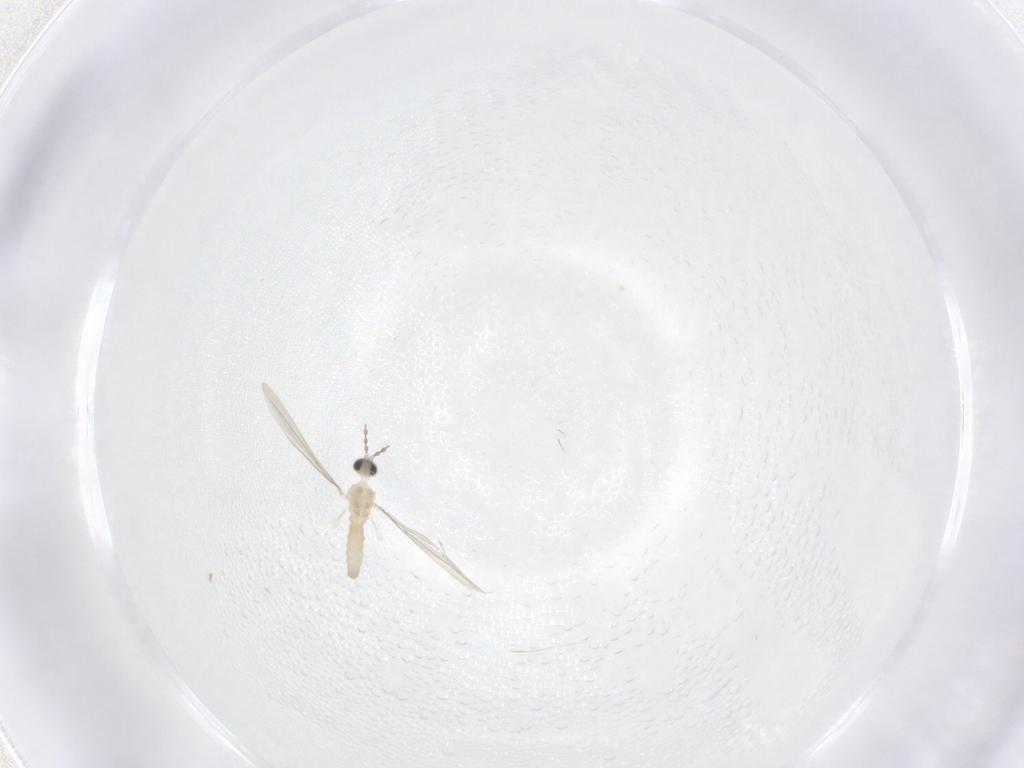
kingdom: Animalia
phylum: Arthropoda
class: Insecta
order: Diptera
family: Cecidomyiidae
